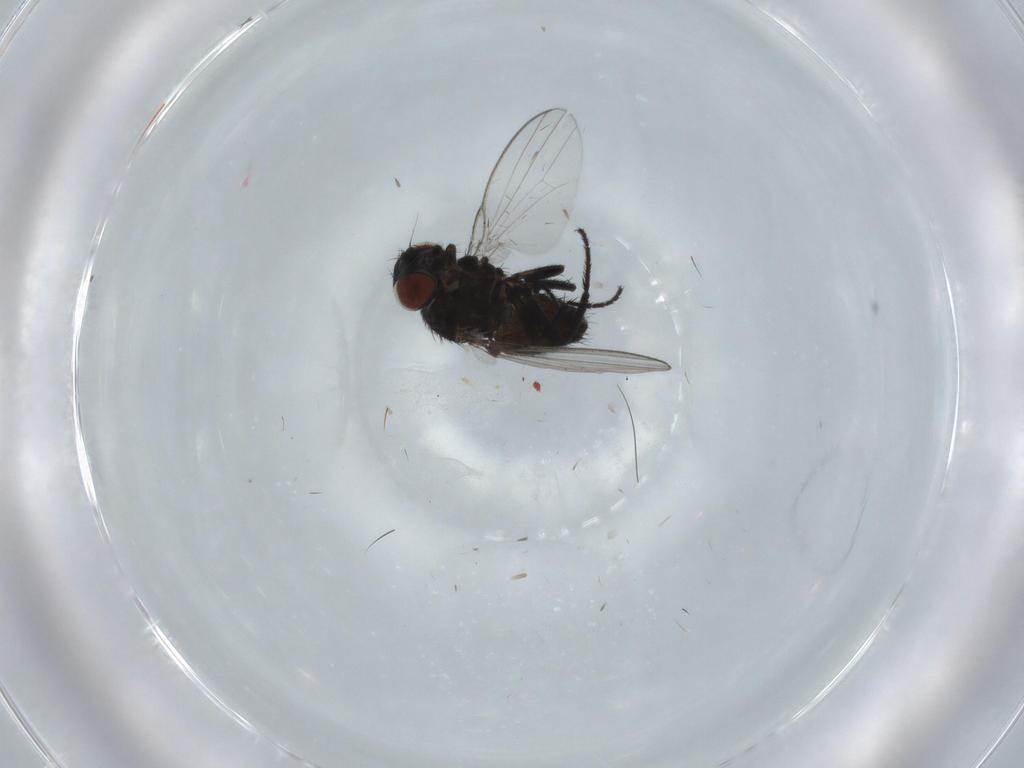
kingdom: Animalia
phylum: Arthropoda
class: Insecta
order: Diptera
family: Milichiidae
